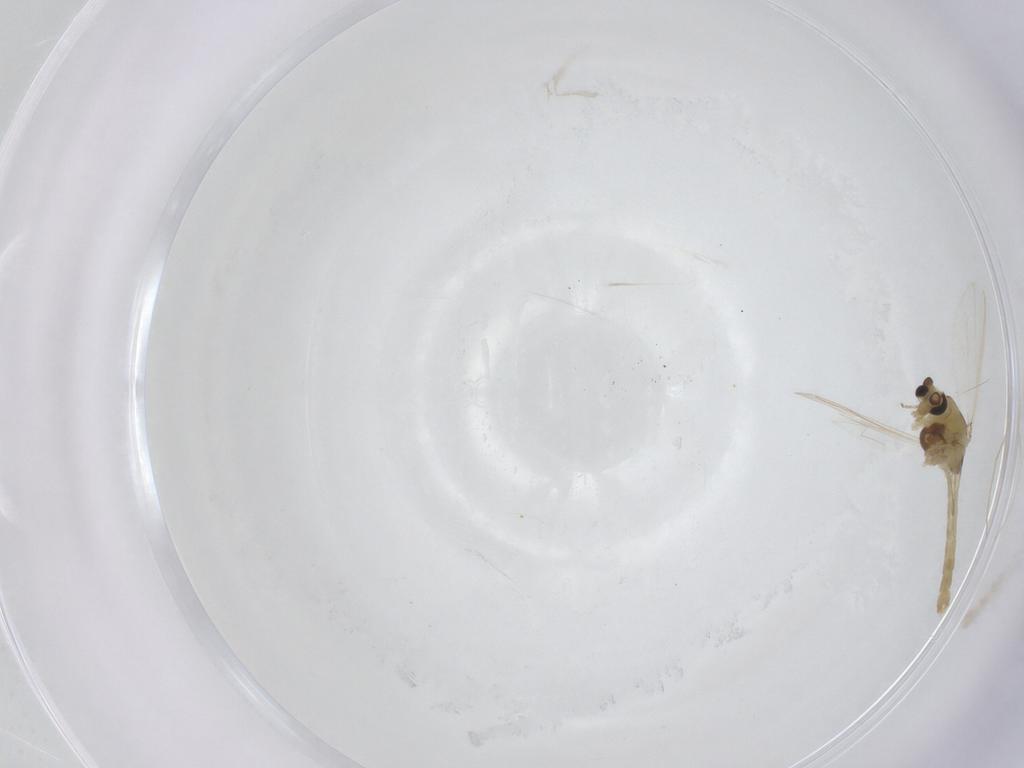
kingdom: Animalia
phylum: Arthropoda
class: Insecta
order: Diptera
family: Chironomidae
